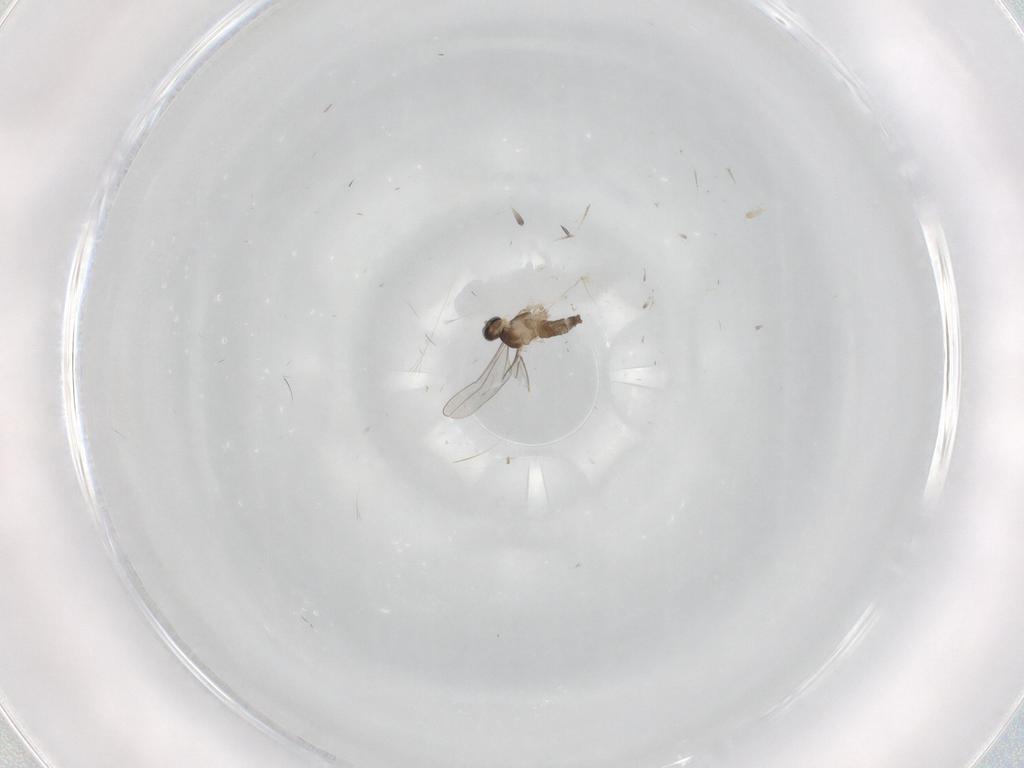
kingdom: Animalia
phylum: Arthropoda
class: Insecta
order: Diptera
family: Cecidomyiidae
